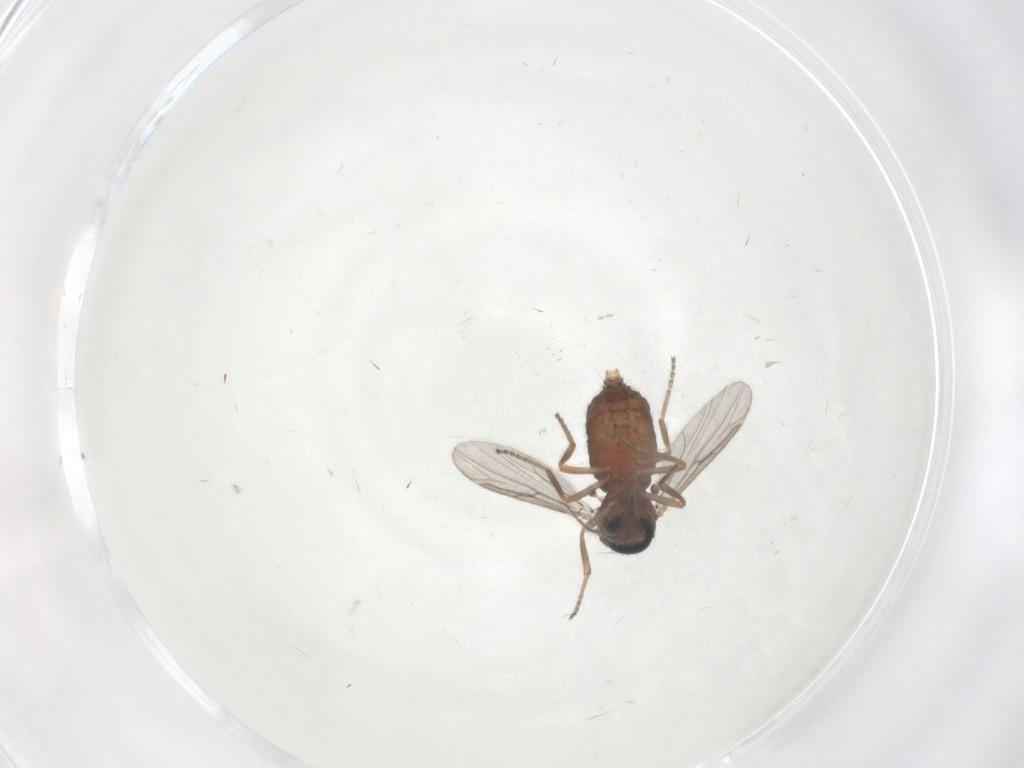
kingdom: Animalia
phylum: Arthropoda
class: Insecta
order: Diptera
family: Ceratopogonidae
